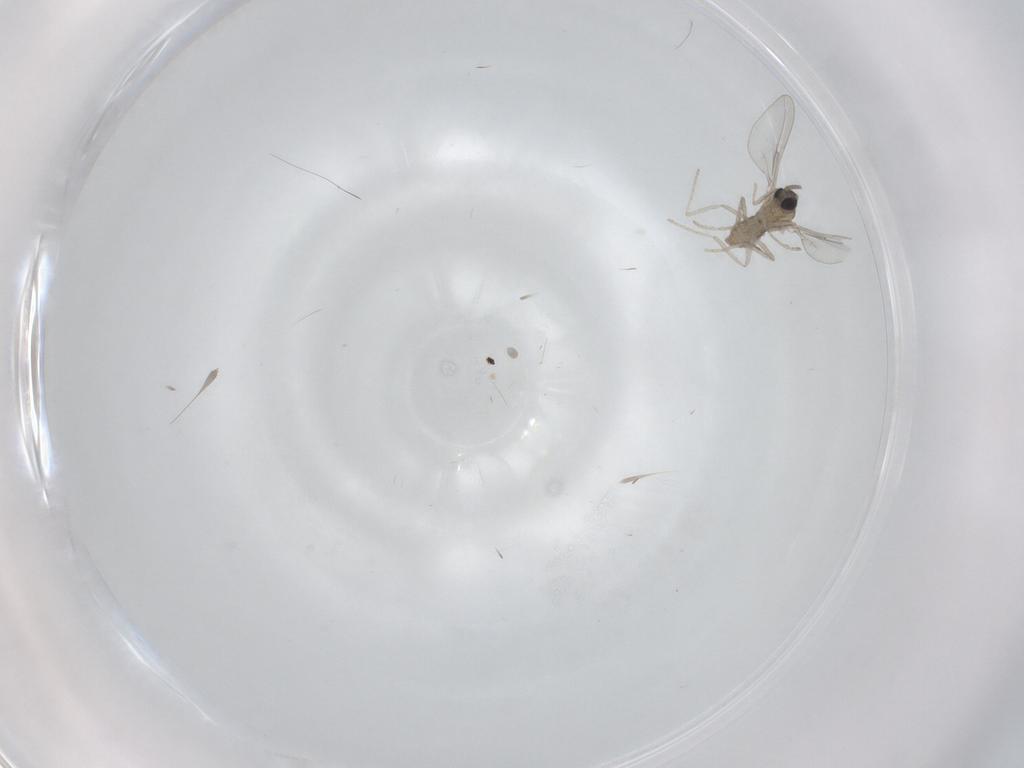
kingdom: Animalia
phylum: Arthropoda
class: Insecta
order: Diptera
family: Cecidomyiidae
